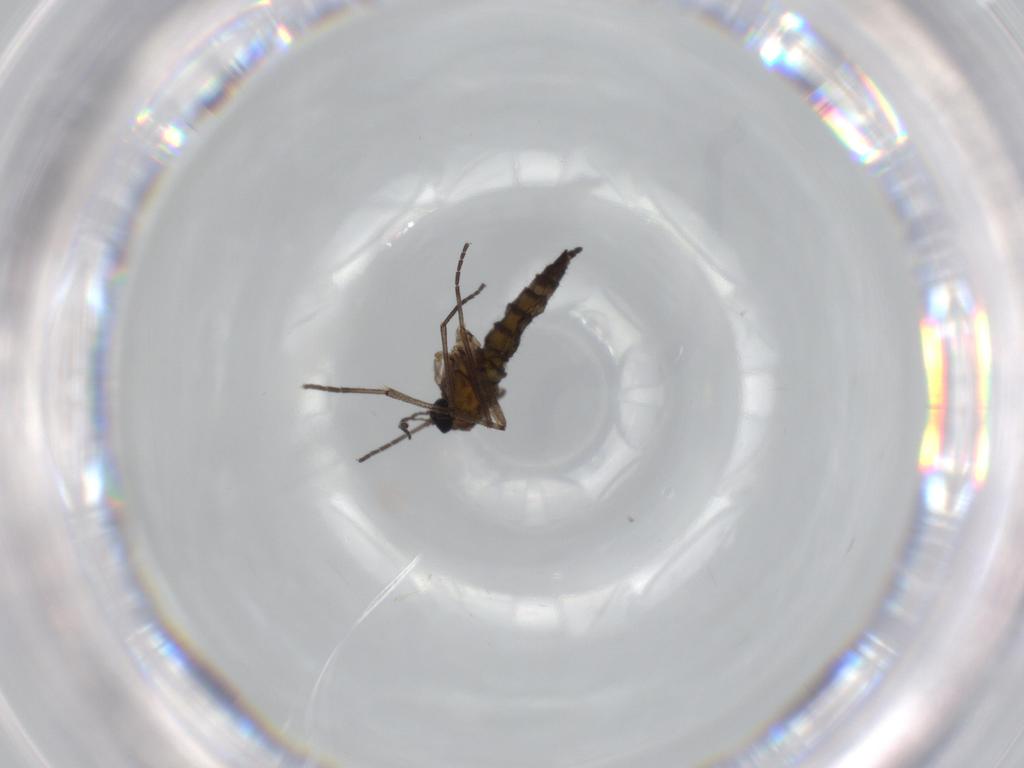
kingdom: Animalia
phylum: Arthropoda
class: Insecta
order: Diptera
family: Sciaridae
